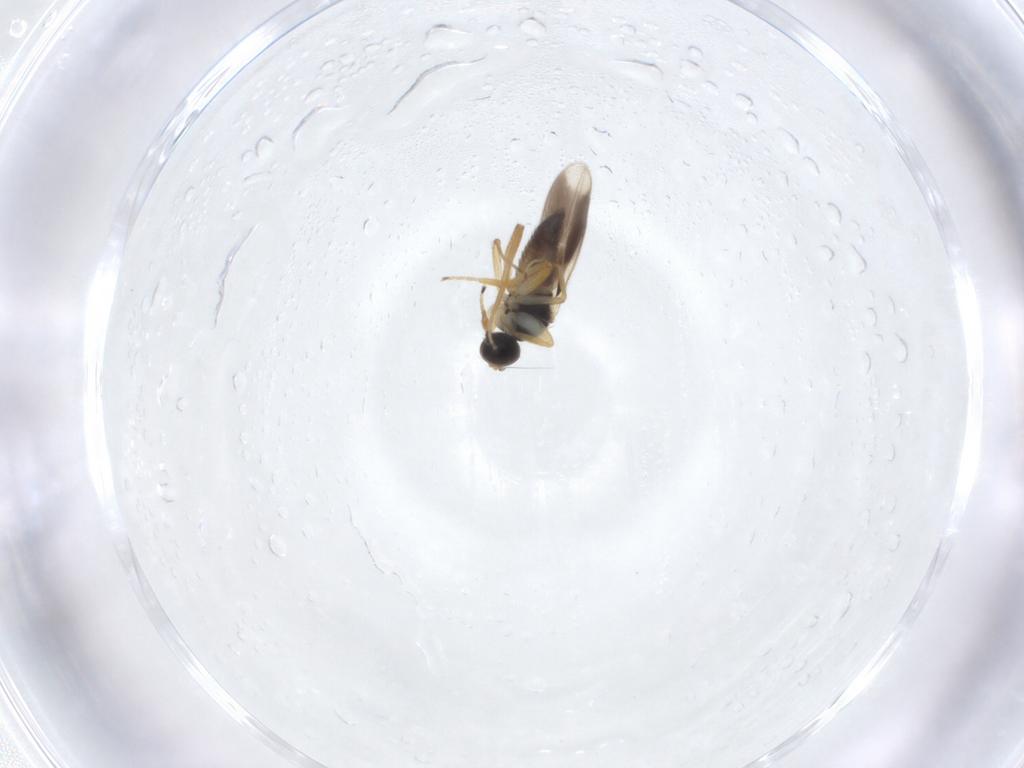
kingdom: Animalia
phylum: Arthropoda
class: Insecta
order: Diptera
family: Hybotidae
